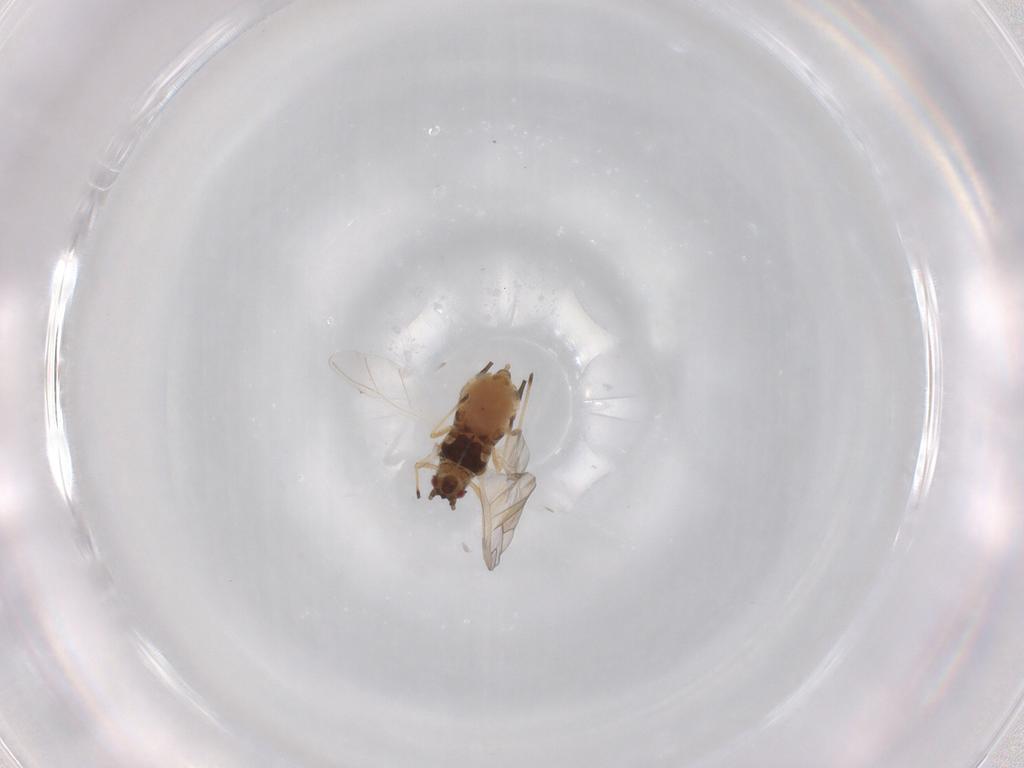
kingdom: Animalia
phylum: Arthropoda
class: Insecta
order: Hemiptera
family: Aphididae
